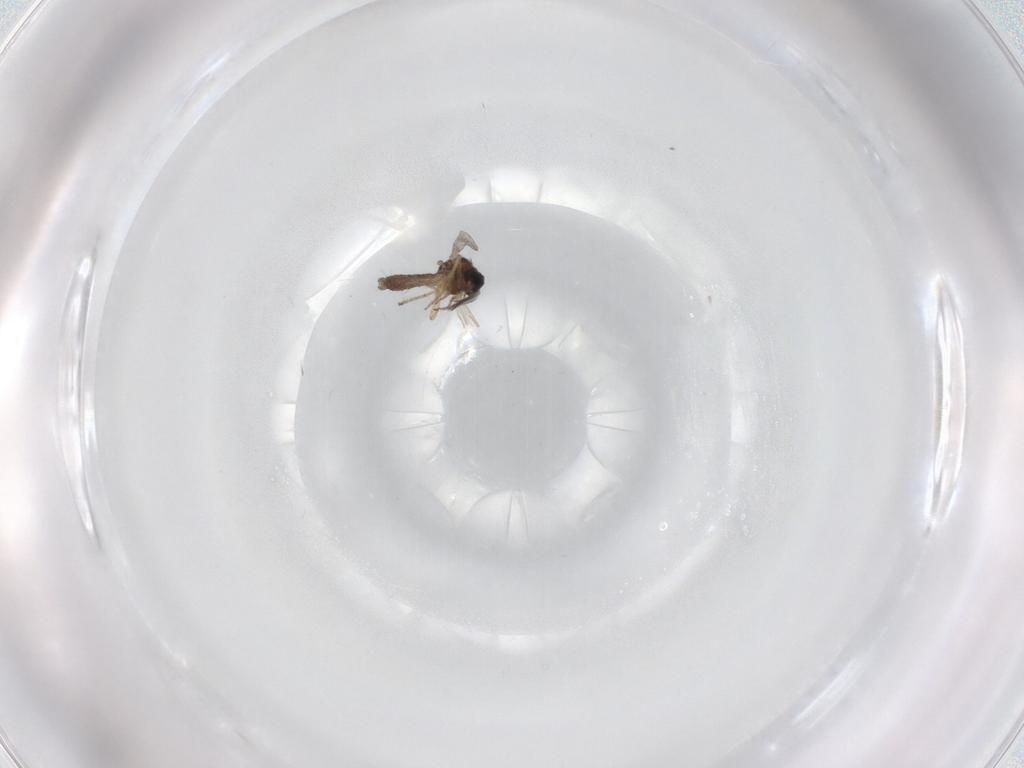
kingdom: Animalia
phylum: Arthropoda
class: Insecta
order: Diptera
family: Ceratopogonidae
